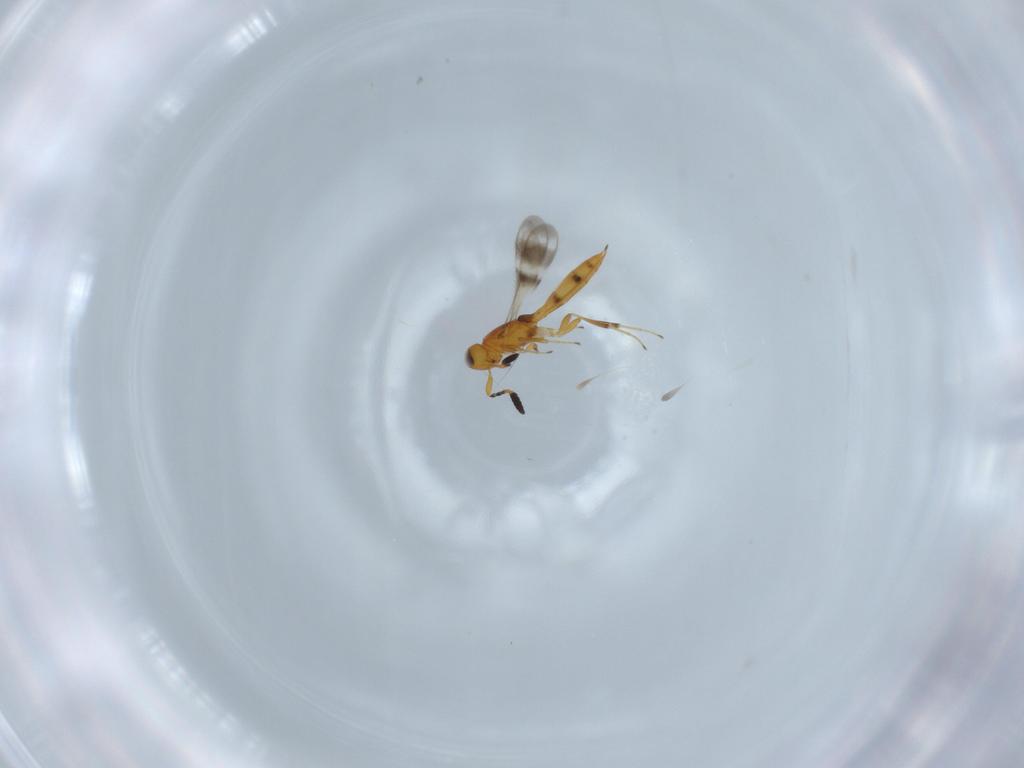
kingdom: Animalia
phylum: Arthropoda
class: Insecta
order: Hymenoptera
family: Scelionidae
